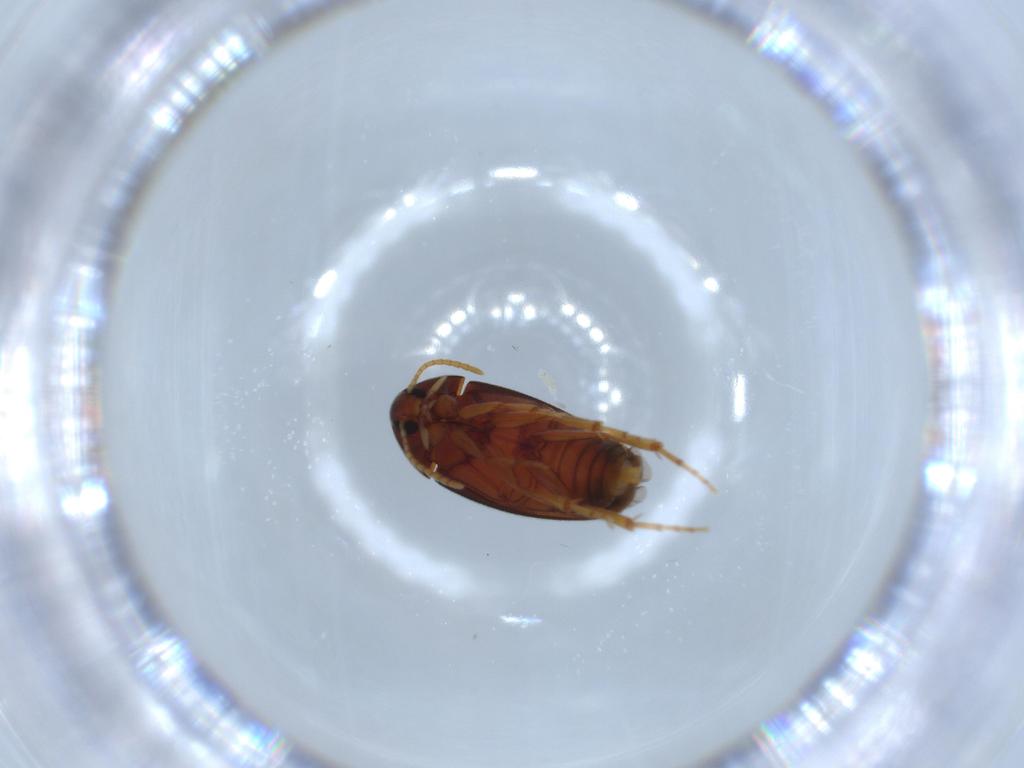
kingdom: Animalia
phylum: Arthropoda
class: Insecta
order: Coleoptera
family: Scraptiidae
